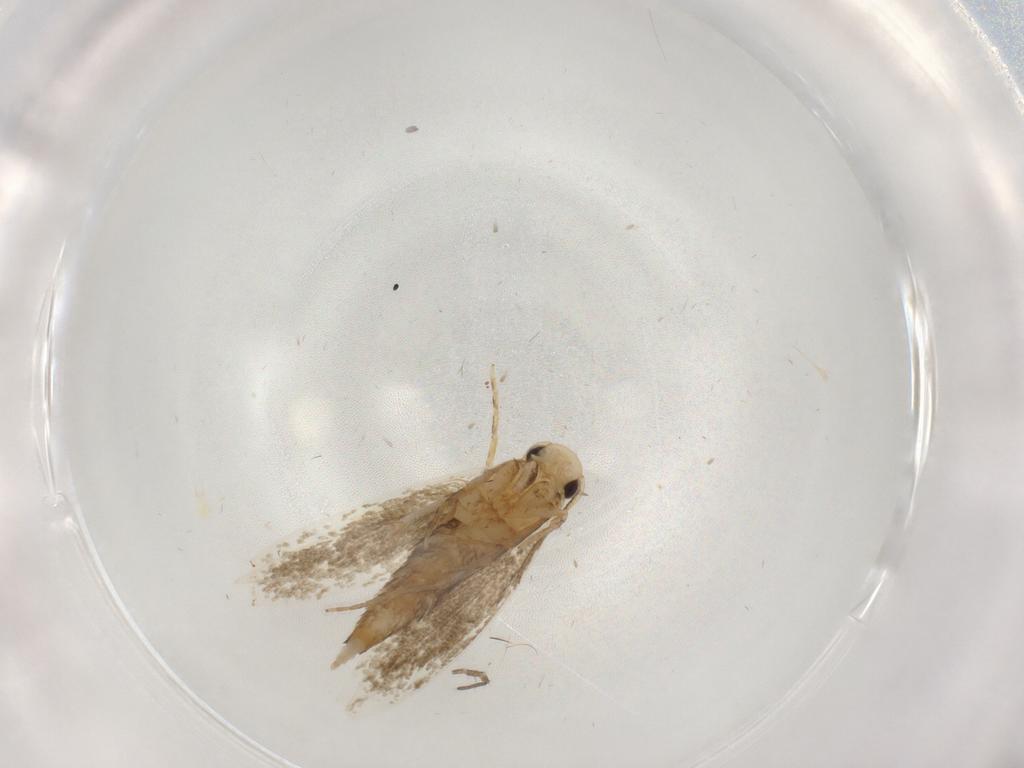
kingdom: Animalia
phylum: Arthropoda
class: Insecta
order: Lepidoptera
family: Tineidae
